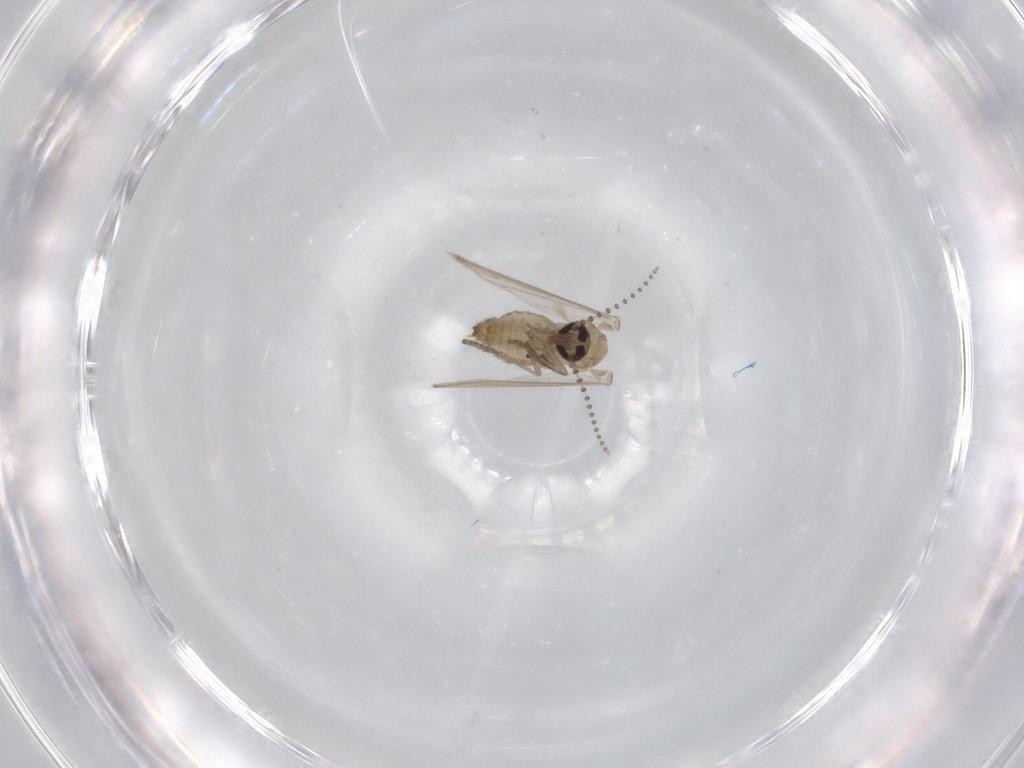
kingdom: Animalia
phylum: Arthropoda
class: Insecta
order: Diptera
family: Psychodidae
